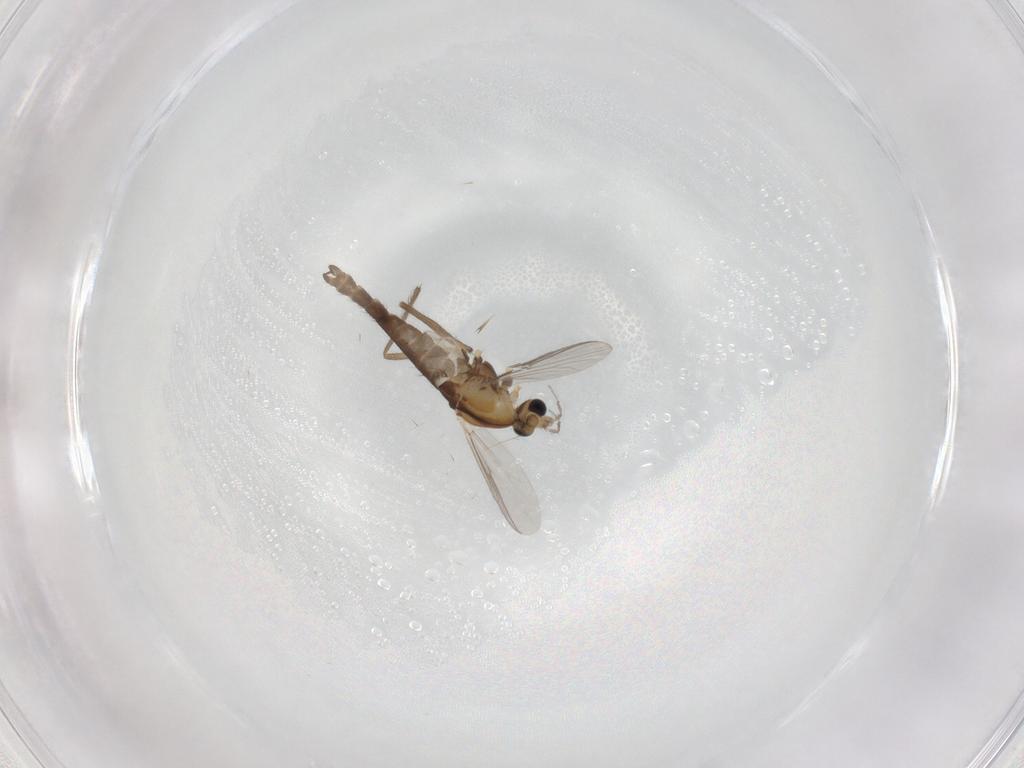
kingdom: Animalia
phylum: Arthropoda
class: Insecta
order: Diptera
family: Chironomidae
